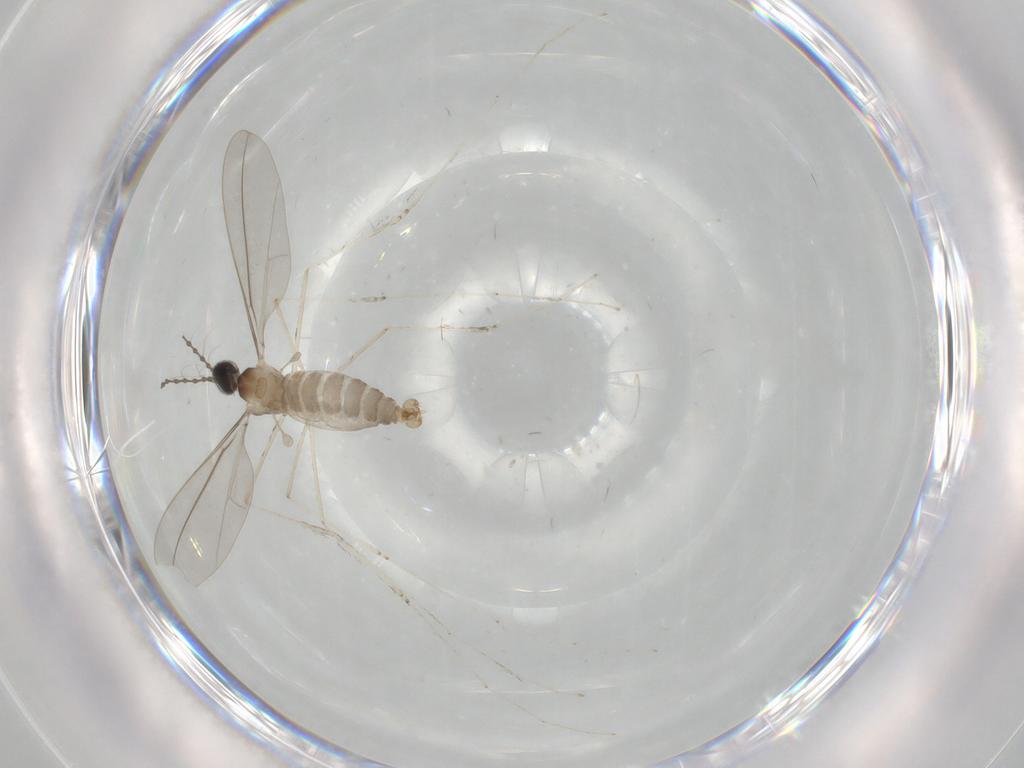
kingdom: Animalia
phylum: Arthropoda
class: Insecta
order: Diptera
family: Cecidomyiidae
